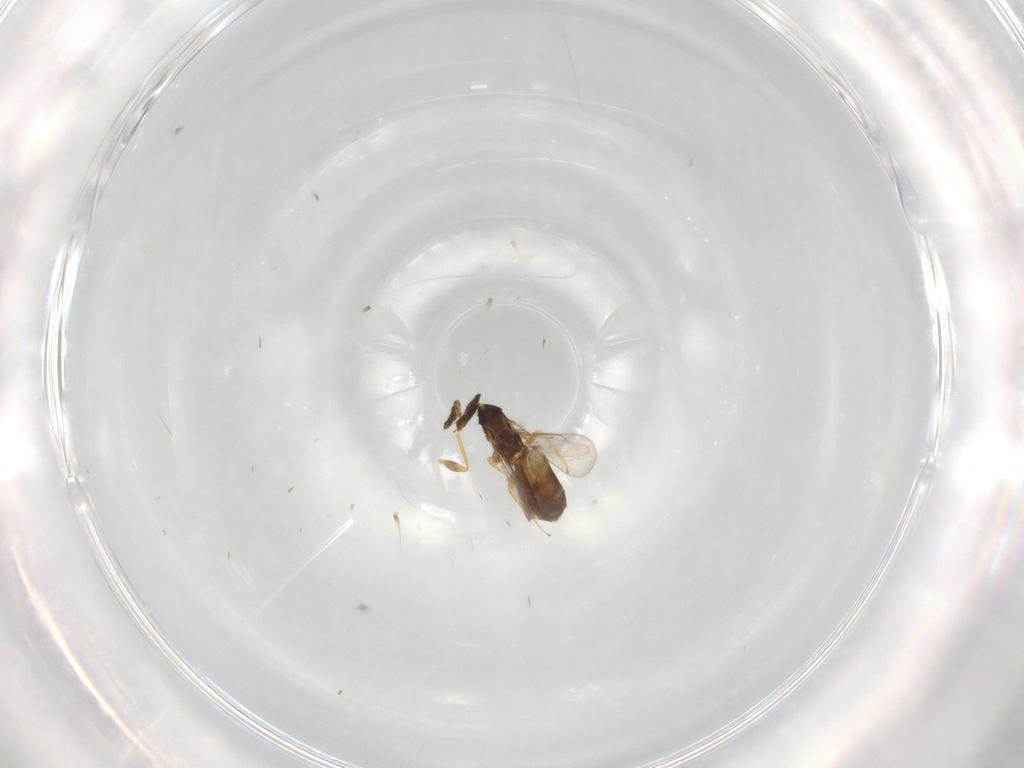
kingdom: Animalia
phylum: Arthropoda
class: Insecta
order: Hymenoptera
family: Eulophidae
